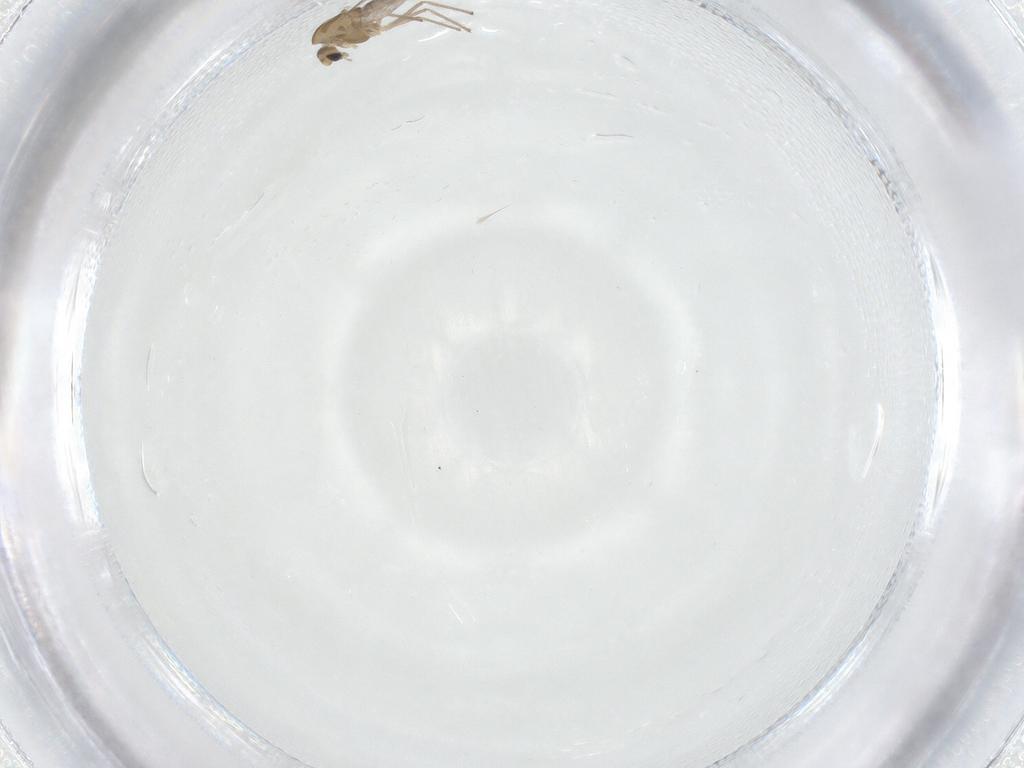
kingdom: Animalia
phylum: Arthropoda
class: Insecta
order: Diptera
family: Chironomidae
